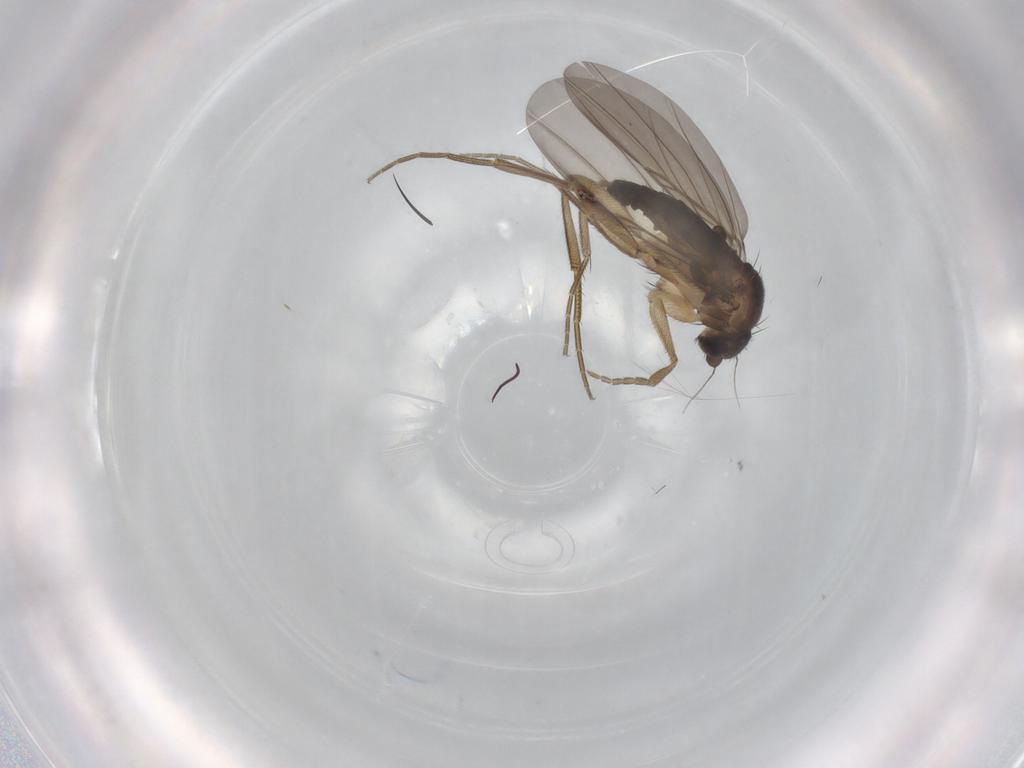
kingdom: Animalia
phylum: Arthropoda
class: Insecta
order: Diptera
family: Phoridae
